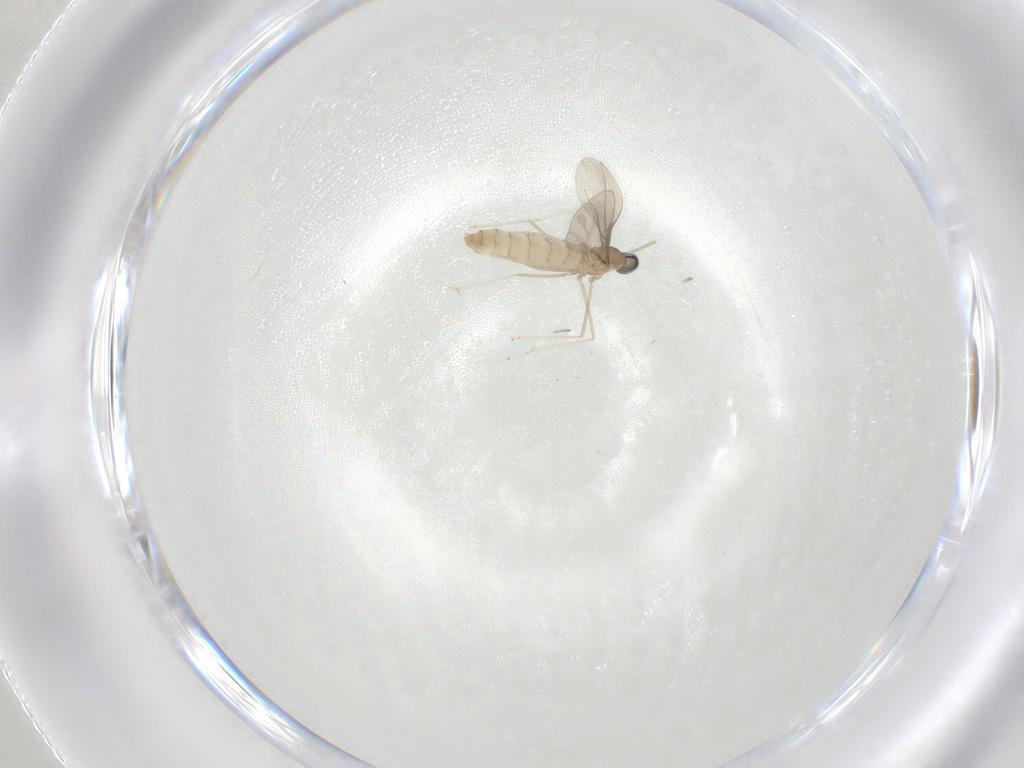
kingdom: Animalia
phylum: Arthropoda
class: Insecta
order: Diptera
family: Cecidomyiidae
